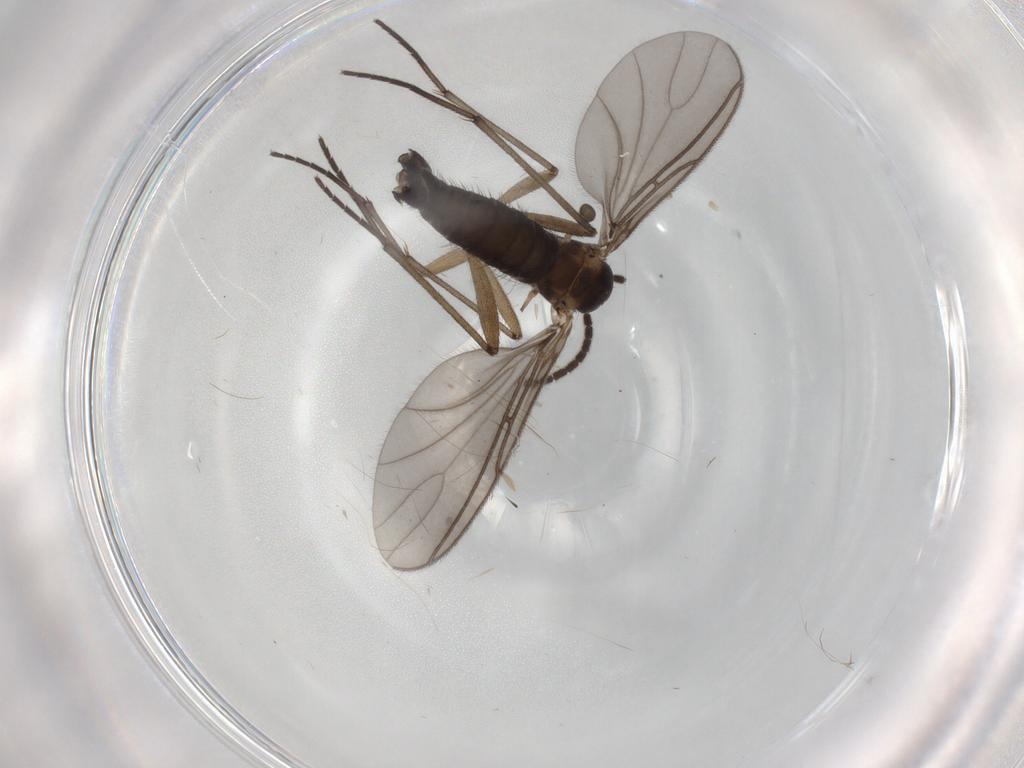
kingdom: Animalia
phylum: Arthropoda
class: Insecta
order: Diptera
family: Sciaridae
